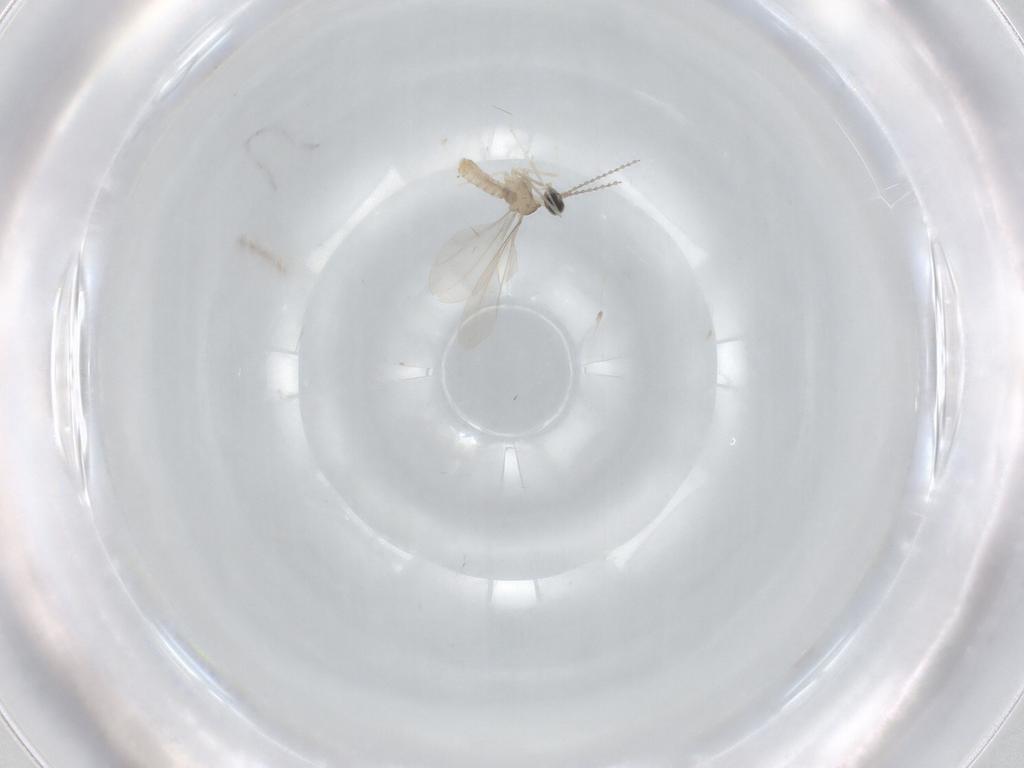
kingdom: Animalia
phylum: Arthropoda
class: Insecta
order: Diptera
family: Cecidomyiidae
